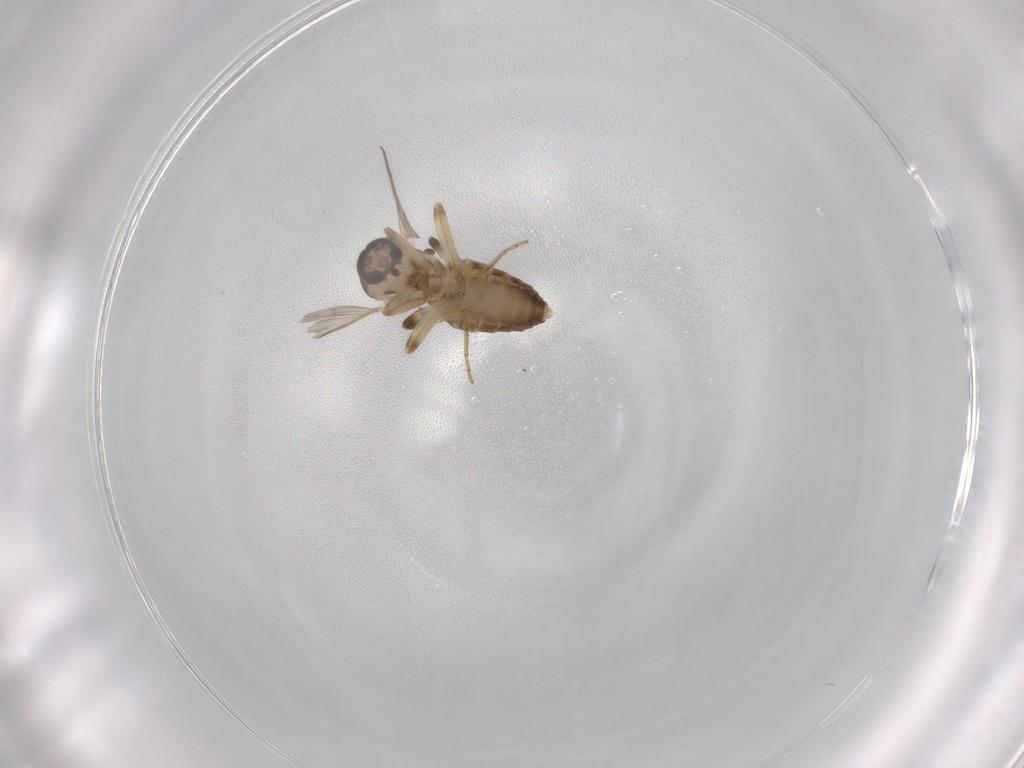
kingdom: Animalia
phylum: Arthropoda
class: Insecta
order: Diptera
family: Ceratopogonidae
